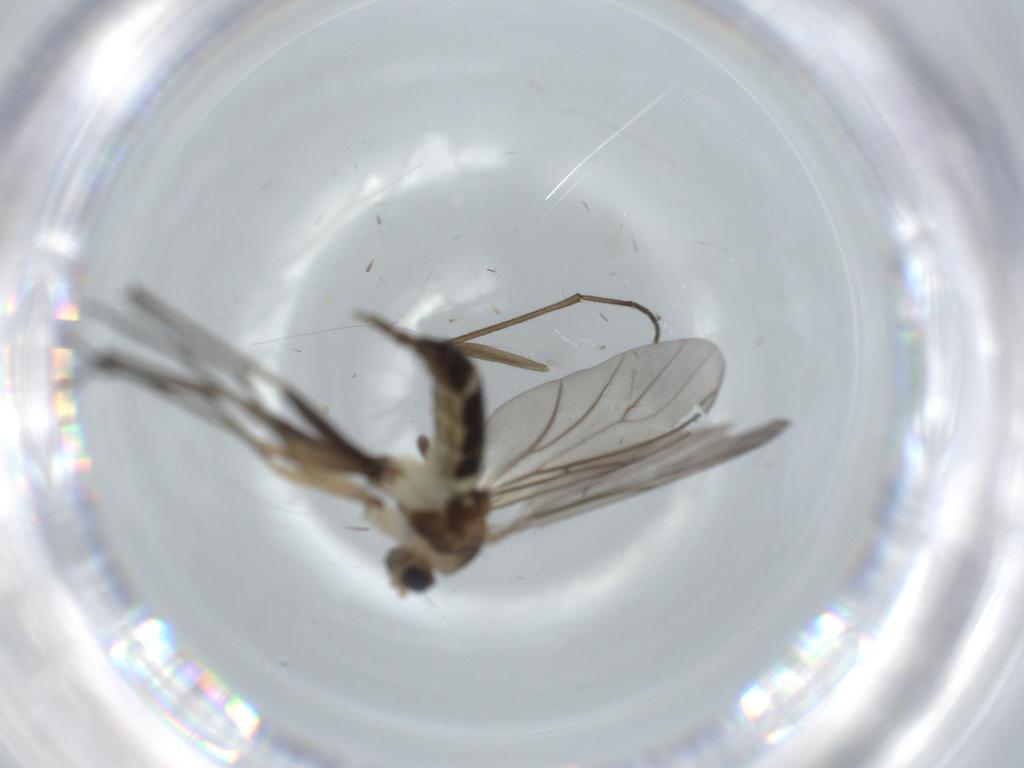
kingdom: Animalia
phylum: Arthropoda
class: Insecta
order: Diptera
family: Sciaridae
